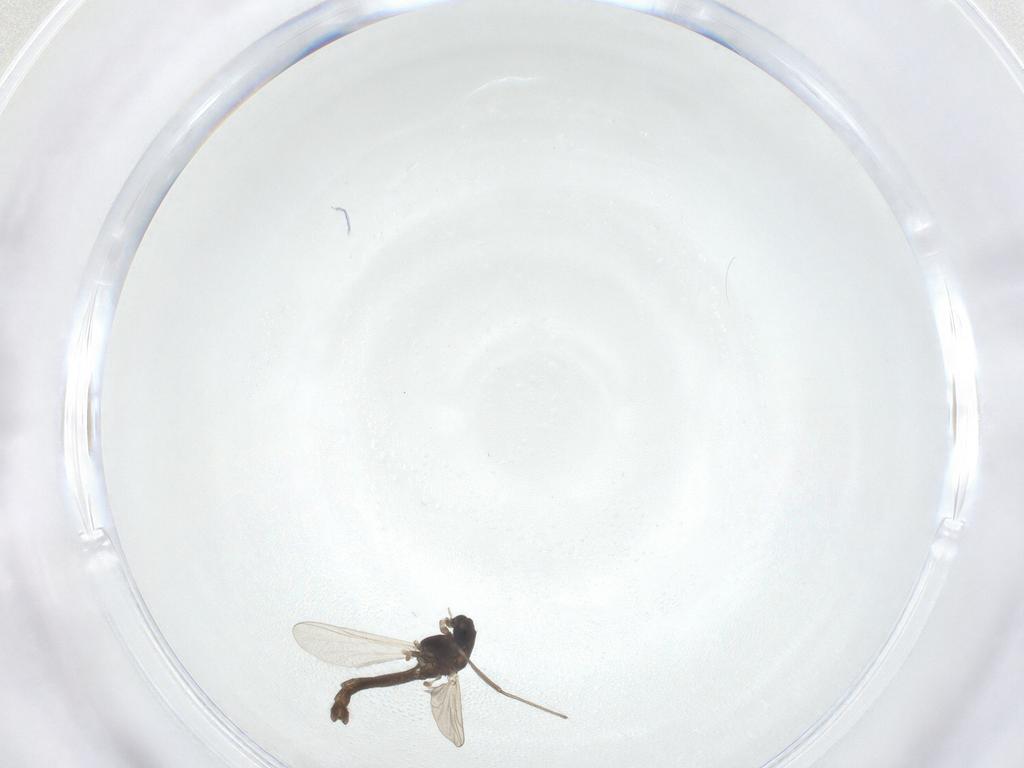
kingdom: Animalia
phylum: Arthropoda
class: Insecta
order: Diptera
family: Chironomidae
